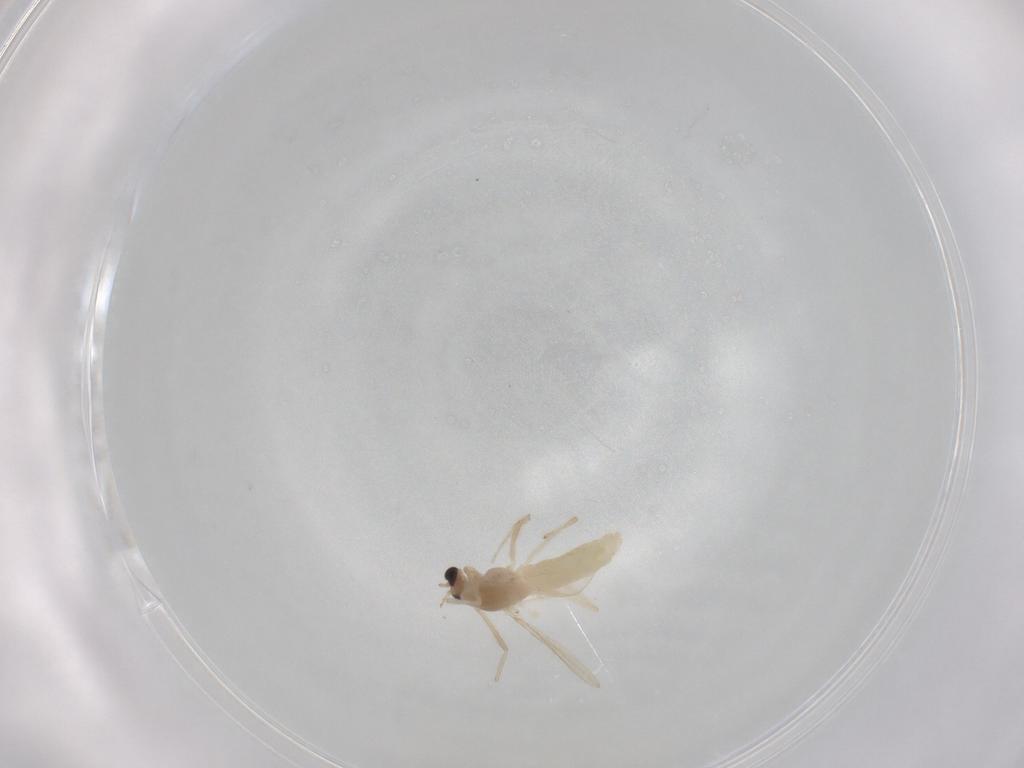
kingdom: Animalia
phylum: Arthropoda
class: Insecta
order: Diptera
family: Chironomidae
